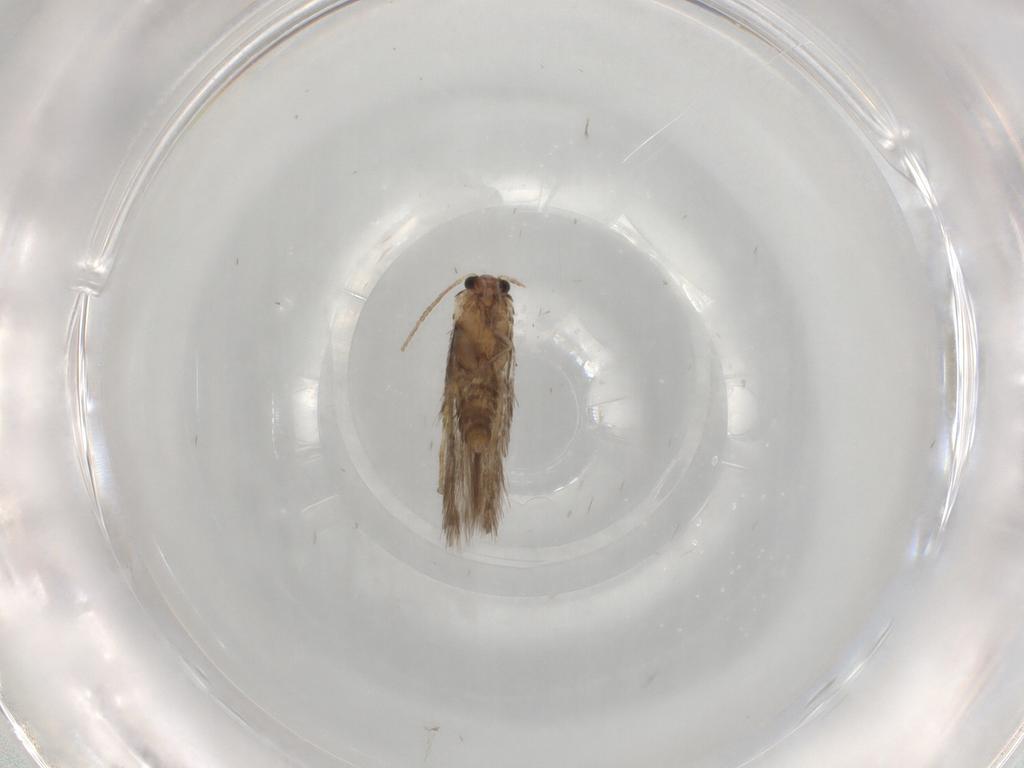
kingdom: Animalia
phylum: Arthropoda
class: Insecta
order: Lepidoptera
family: Nepticulidae
